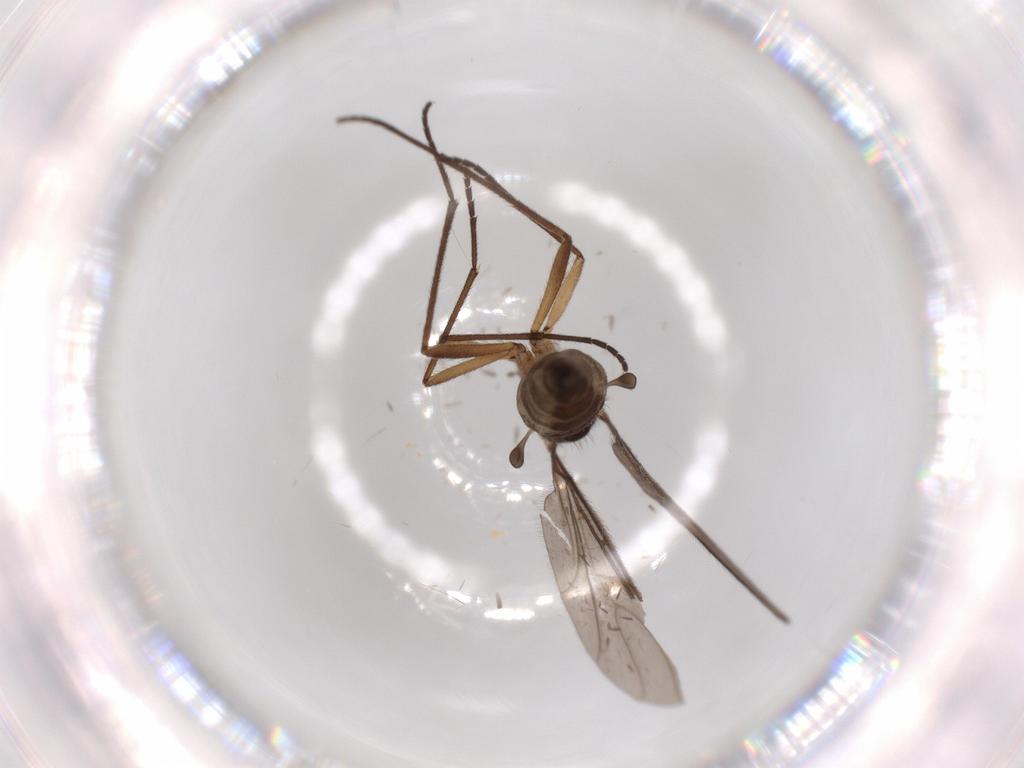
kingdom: Animalia
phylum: Arthropoda
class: Insecta
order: Diptera
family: Sciaridae
